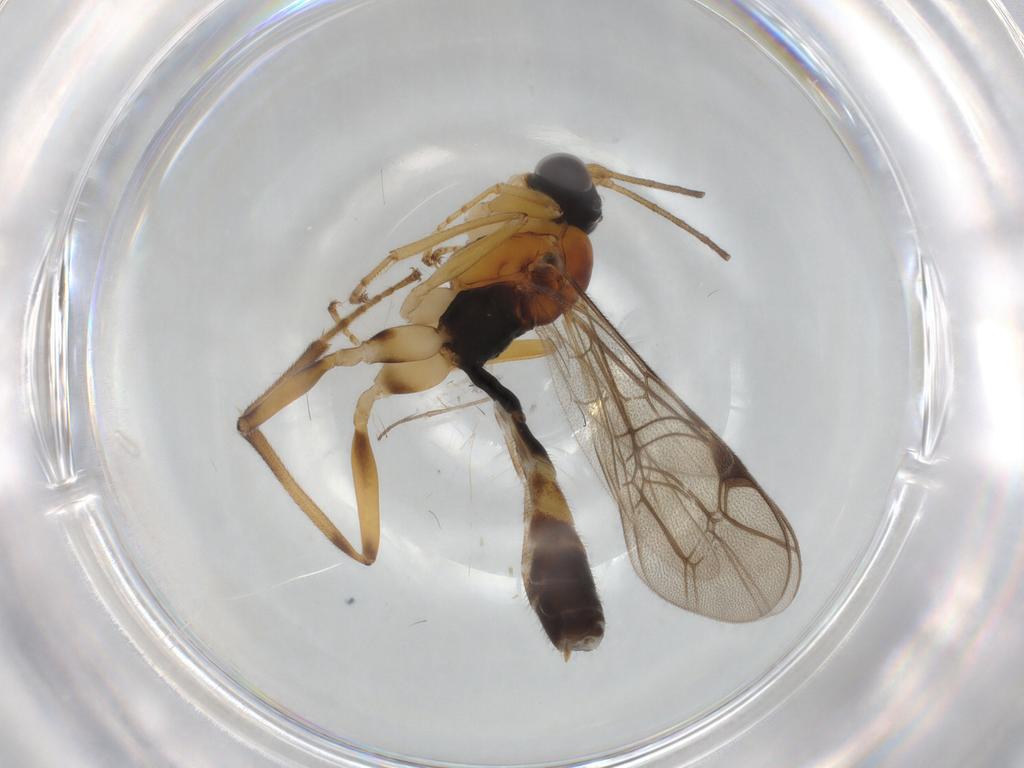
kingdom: Animalia
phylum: Arthropoda
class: Insecta
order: Hymenoptera
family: Ichneumonidae
